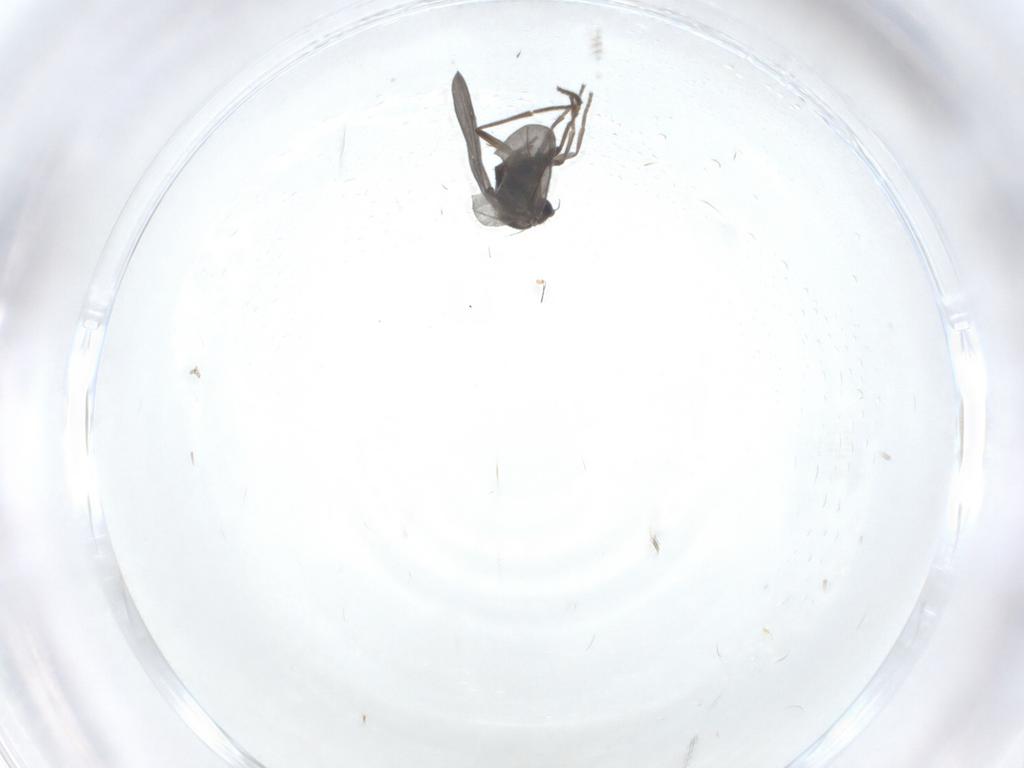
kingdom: Animalia
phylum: Arthropoda
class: Insecta
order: Diptera
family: Phoridae
